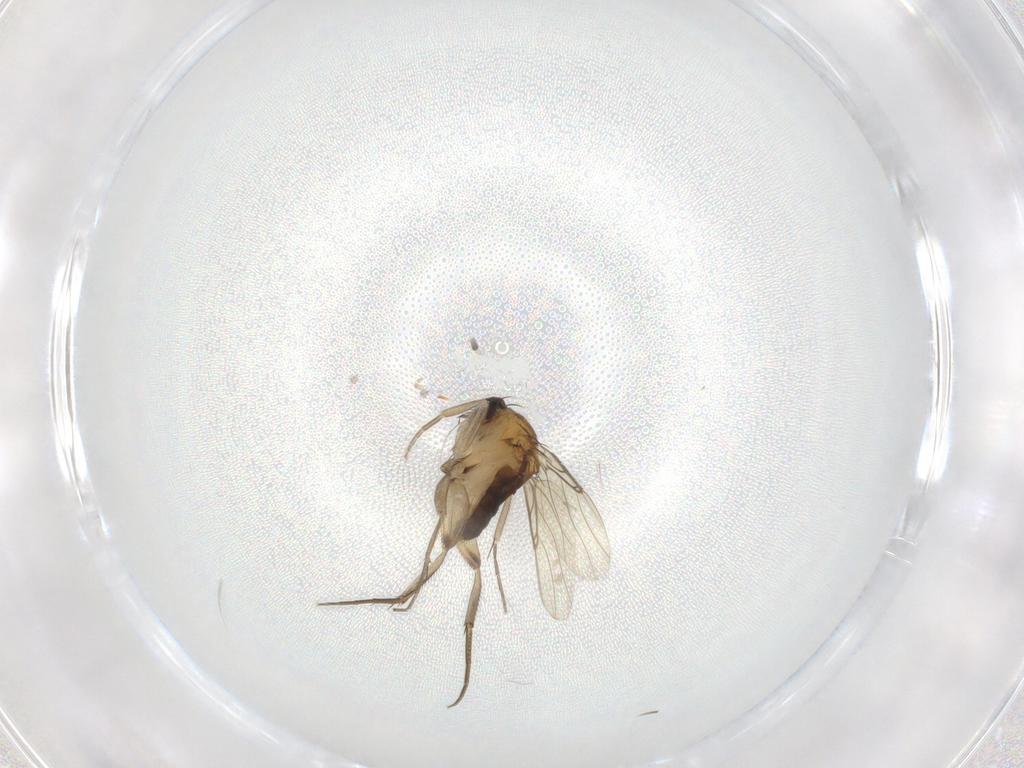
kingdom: Animalia
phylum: Arthropoda
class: Insecta
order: Diptera
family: Phoridae
